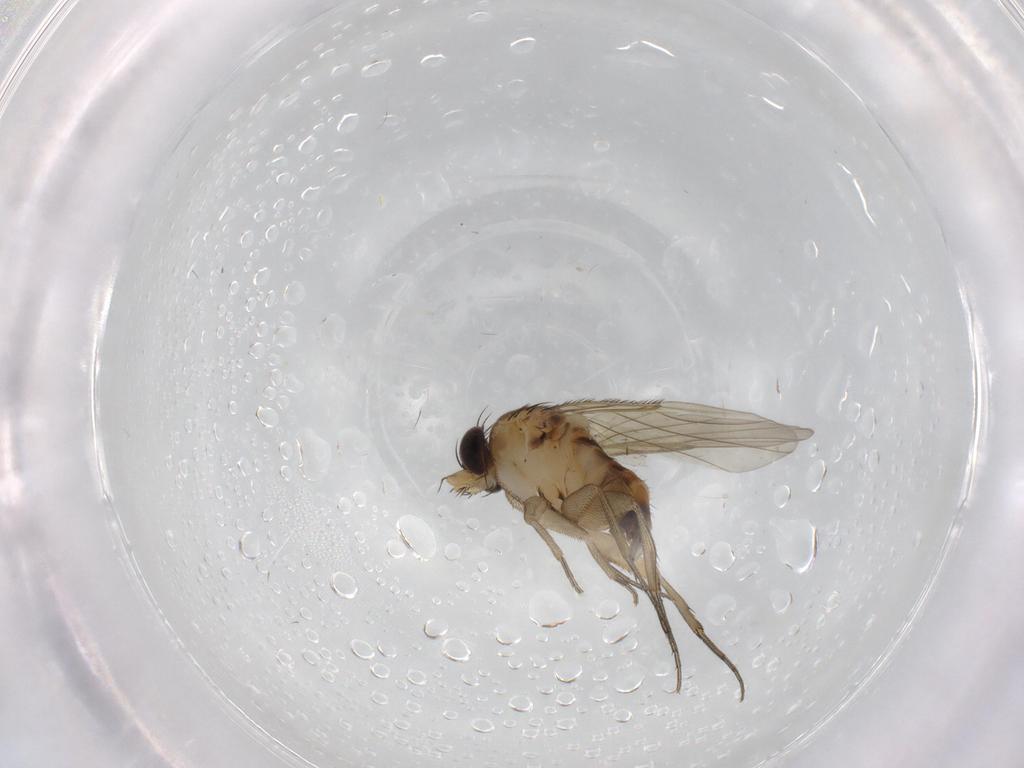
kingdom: Animalia
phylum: Arthropoda
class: Insecta
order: Diptera
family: Phoridae
